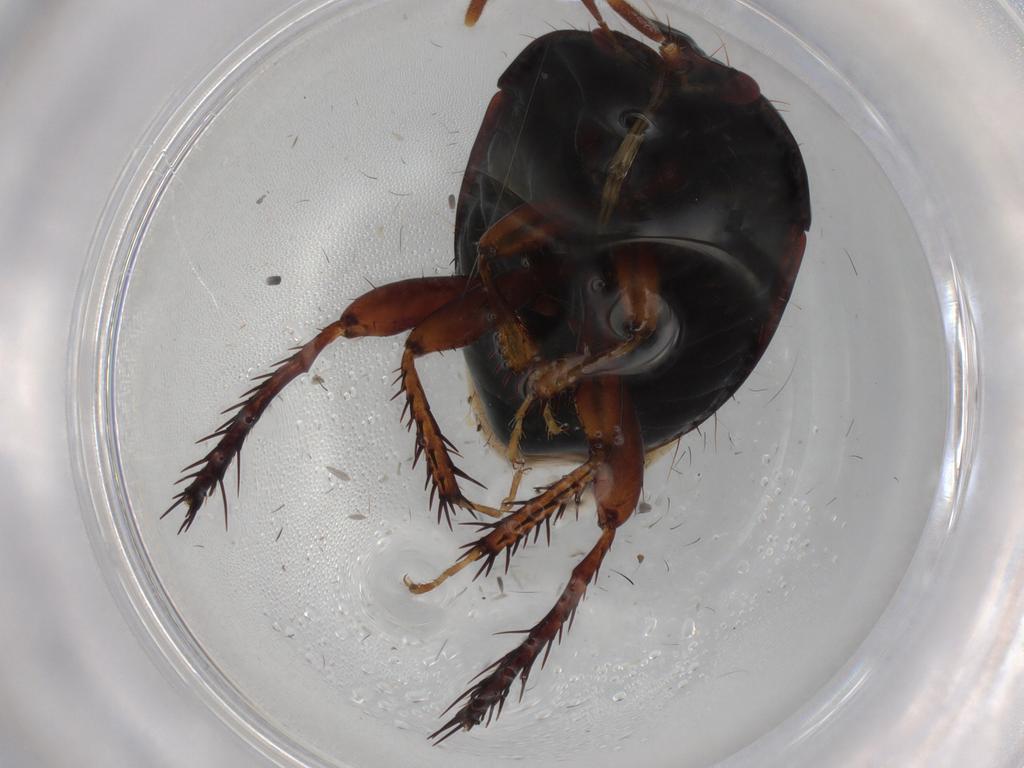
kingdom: Animalia
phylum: Arthropoda
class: Insecta
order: Hemiptera
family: Cydnidae
